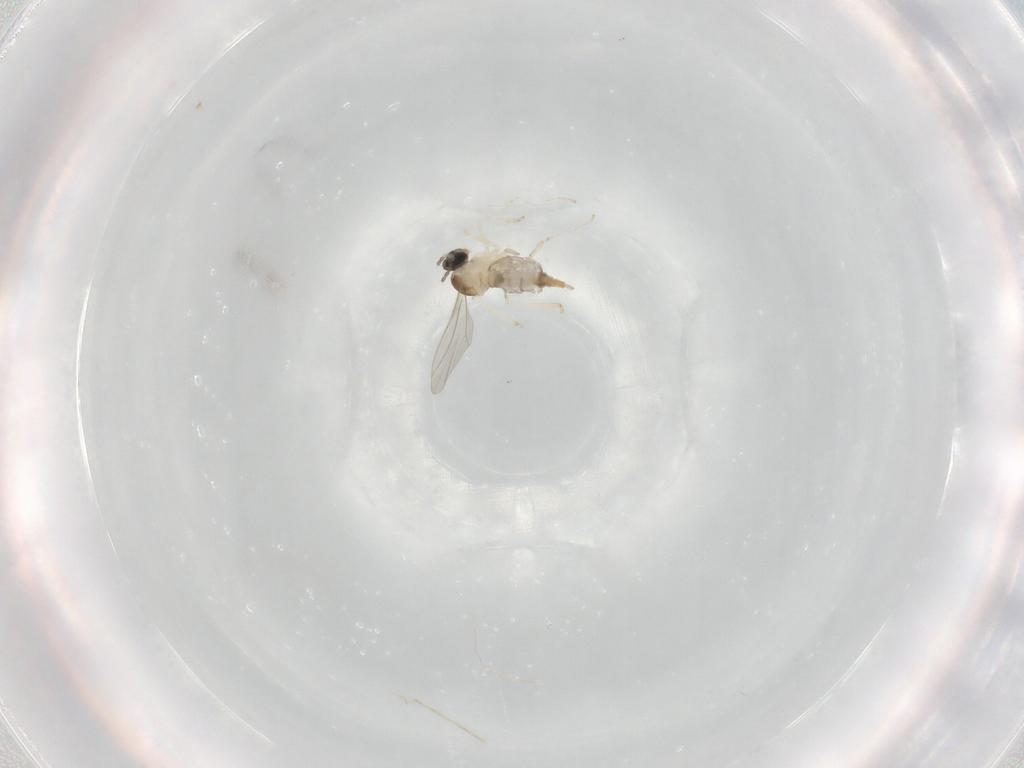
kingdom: Animalia
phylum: Arthropoda
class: Insecta
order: Diptera
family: Cecidomyiidae
